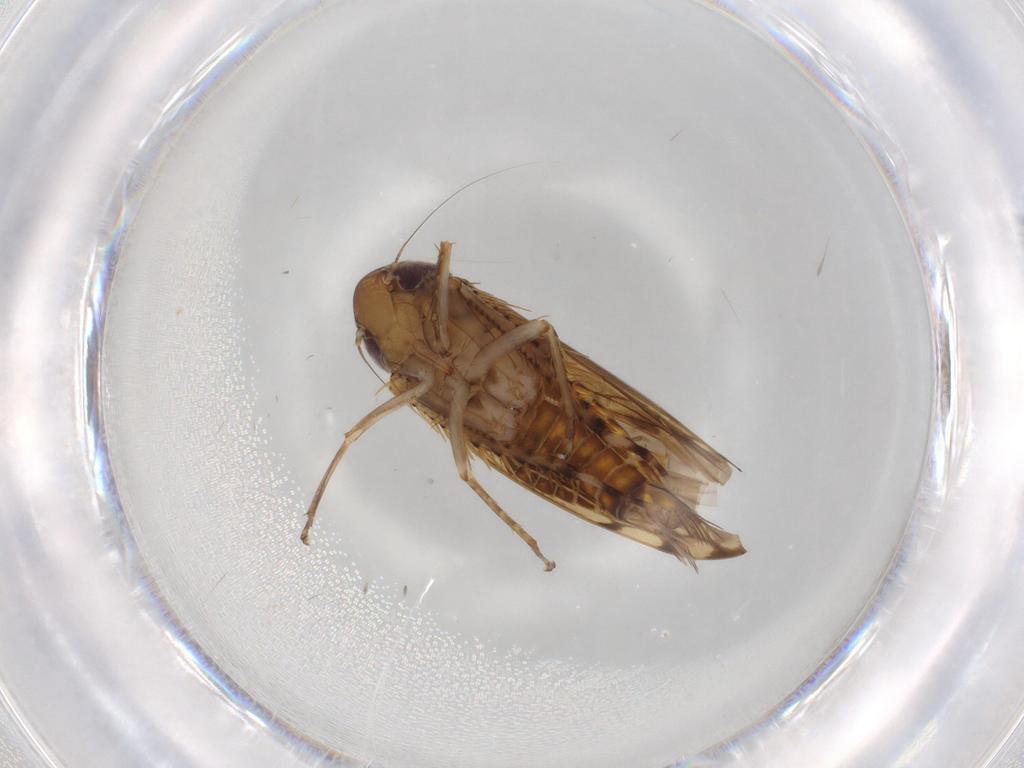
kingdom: Animalia
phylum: Arthropoda
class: Insecta
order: Hemiptera
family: Cicadellidae
